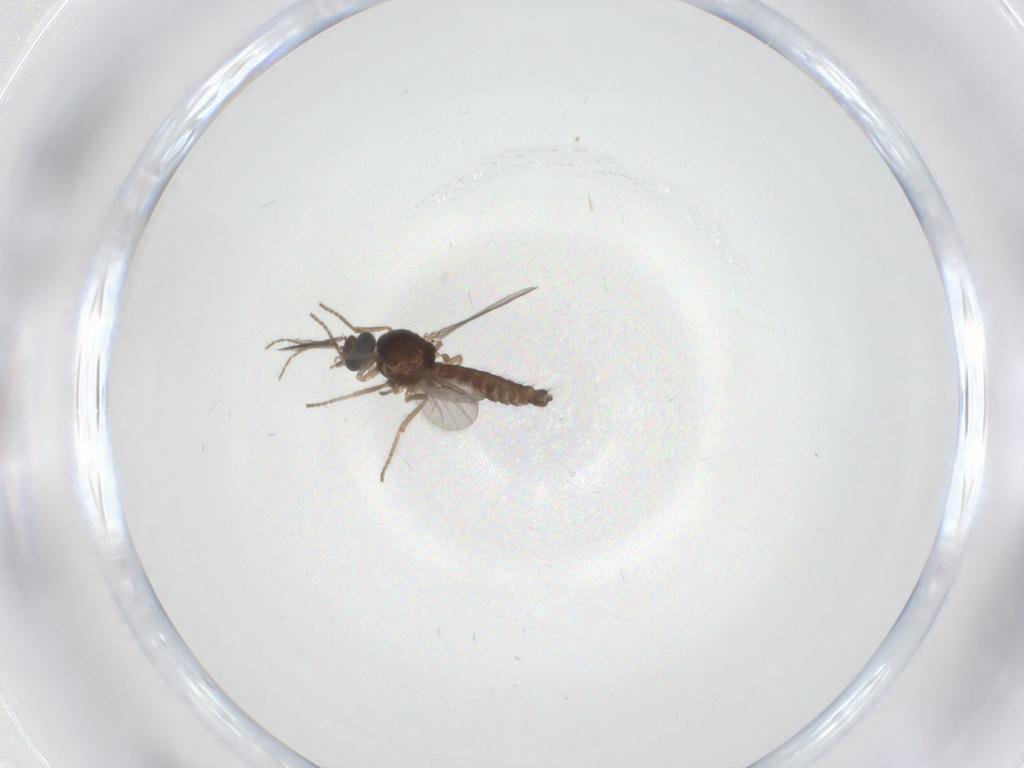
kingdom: Animalia
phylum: Arthropoda
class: Insecta
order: Diptera
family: Ceratopogonidae
